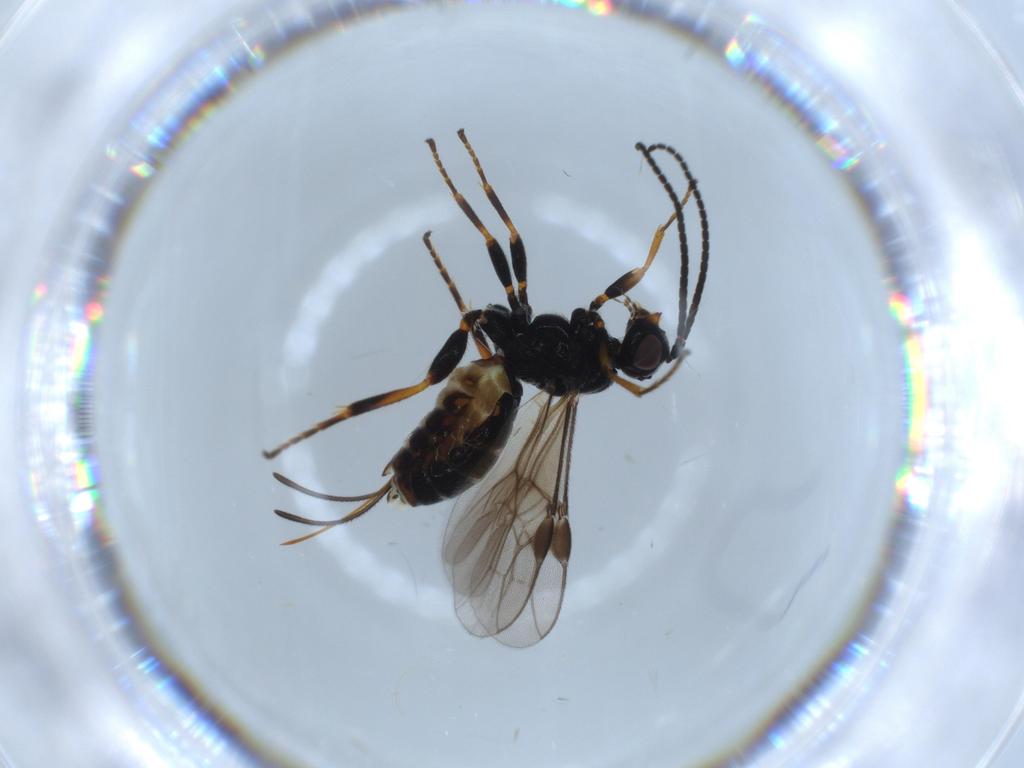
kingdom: Animalia
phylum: Arthropoda
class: Insecta
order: Hymenoptera
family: Braconidae
